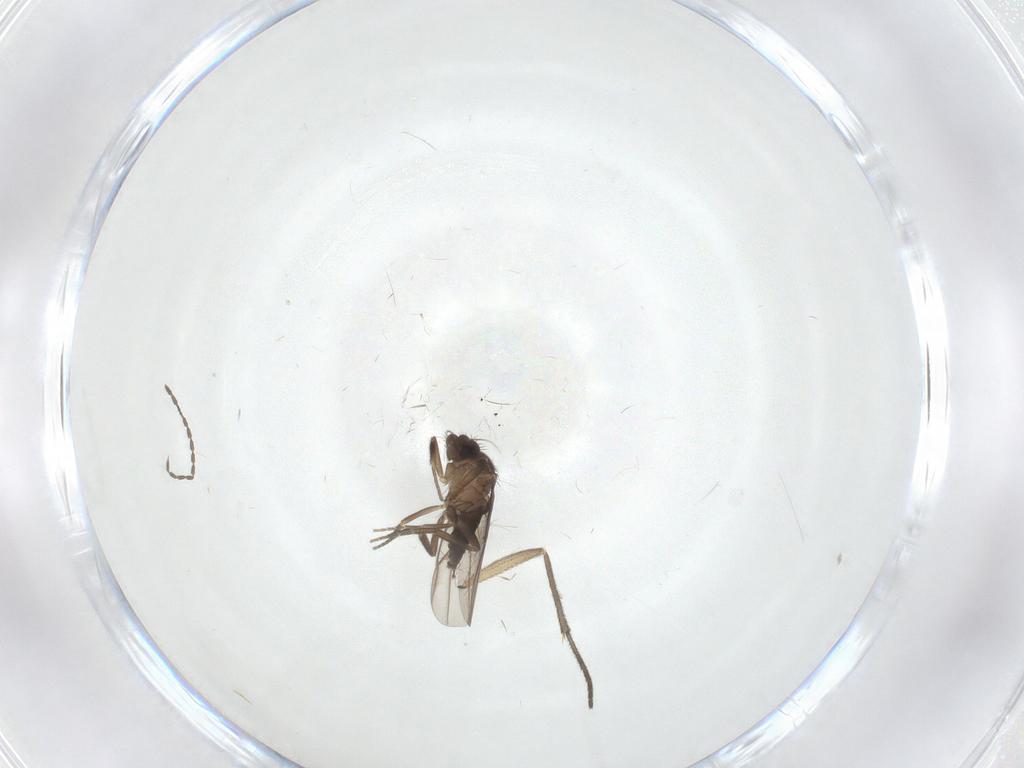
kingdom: Animalia
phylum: Arthropoda
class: Insecta
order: Diptera
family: Sciaridae
